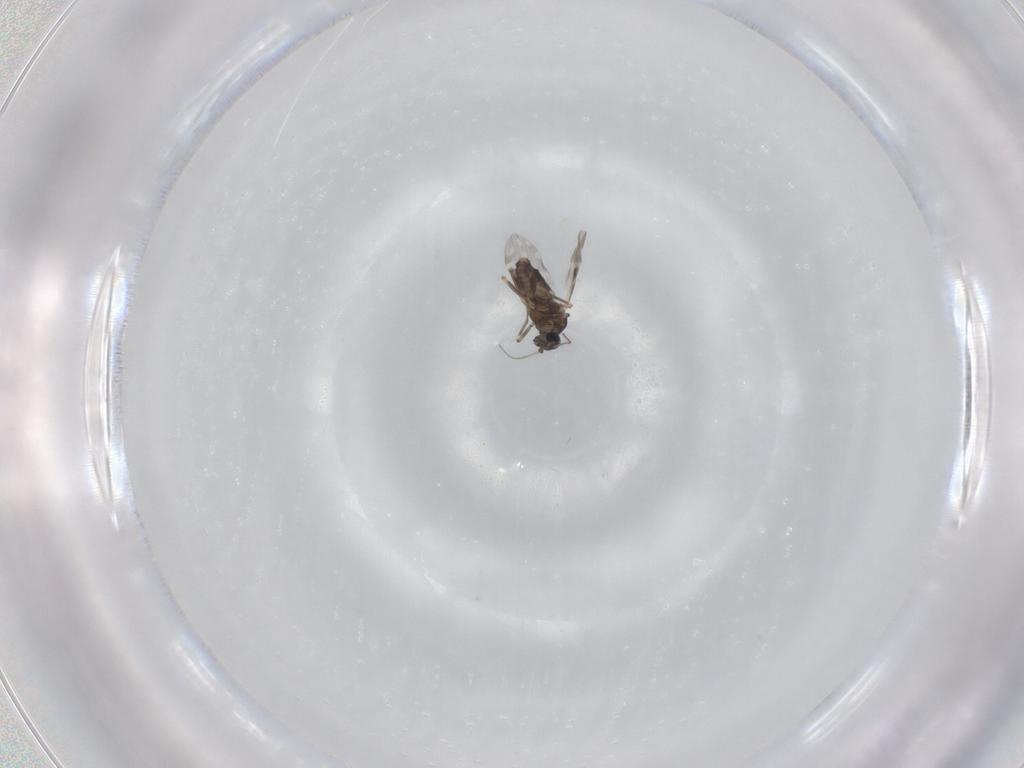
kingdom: Animalia
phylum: Arthropoda
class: Insecta
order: Diptera
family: Ceratopogonidae
